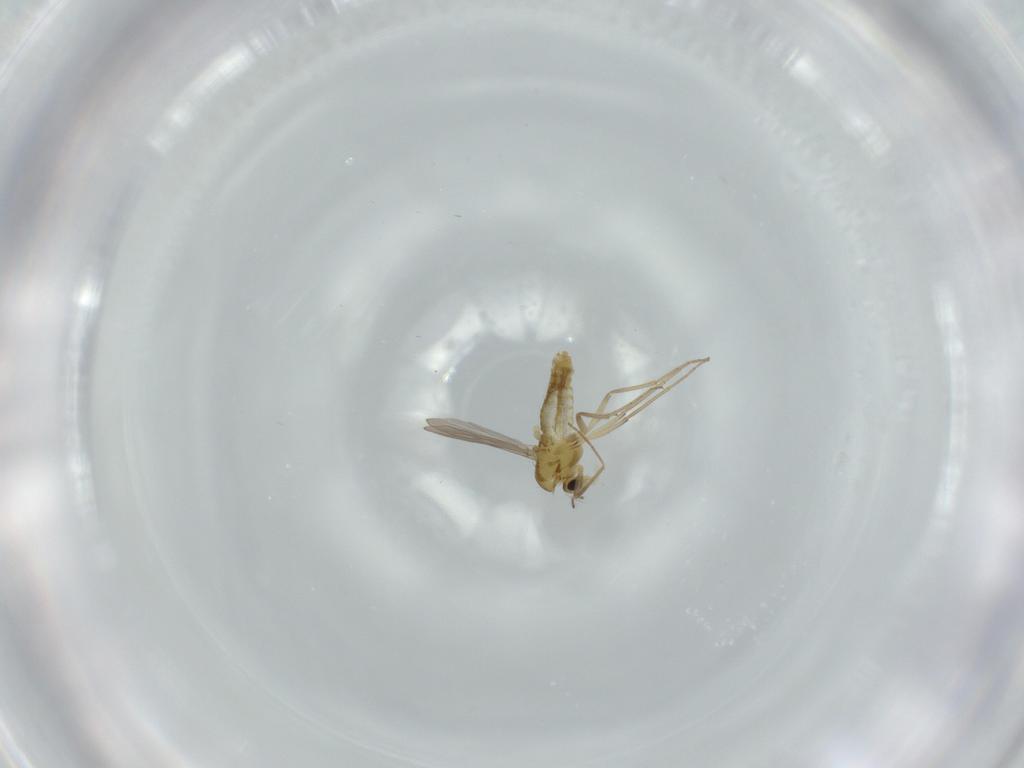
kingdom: Animalia
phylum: Arthropoda
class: Insecta
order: Diptera
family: Chironomidae
